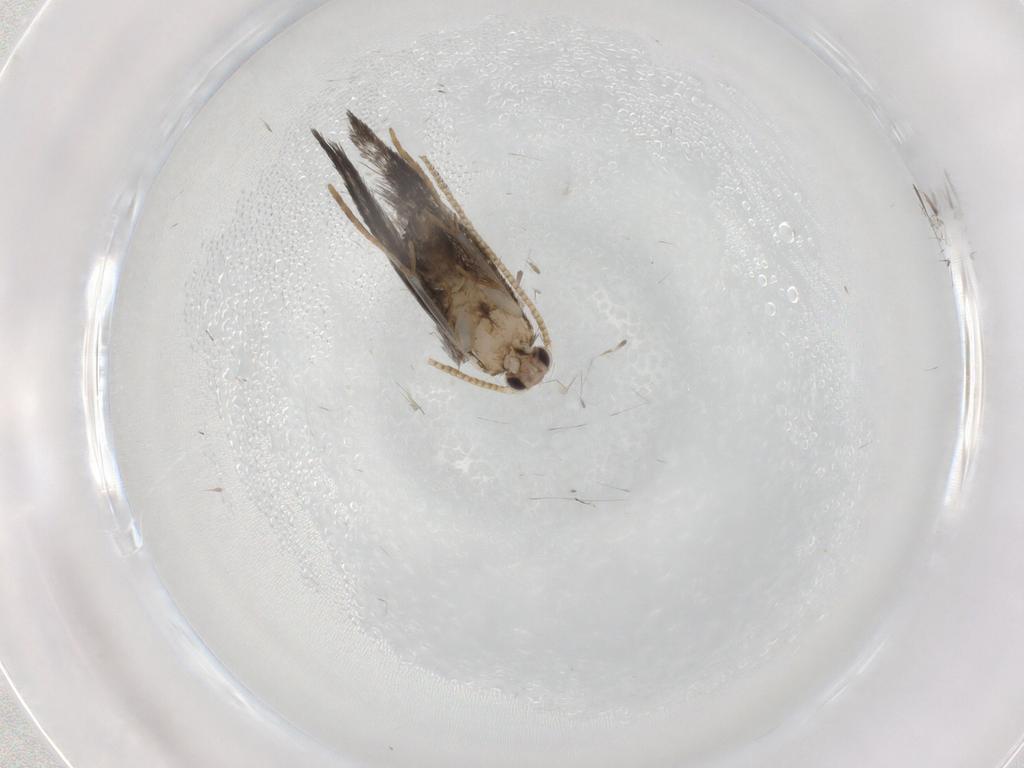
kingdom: Animalia
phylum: Arthropoda
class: Insecta
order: Lepidoptera
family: Tineidae
